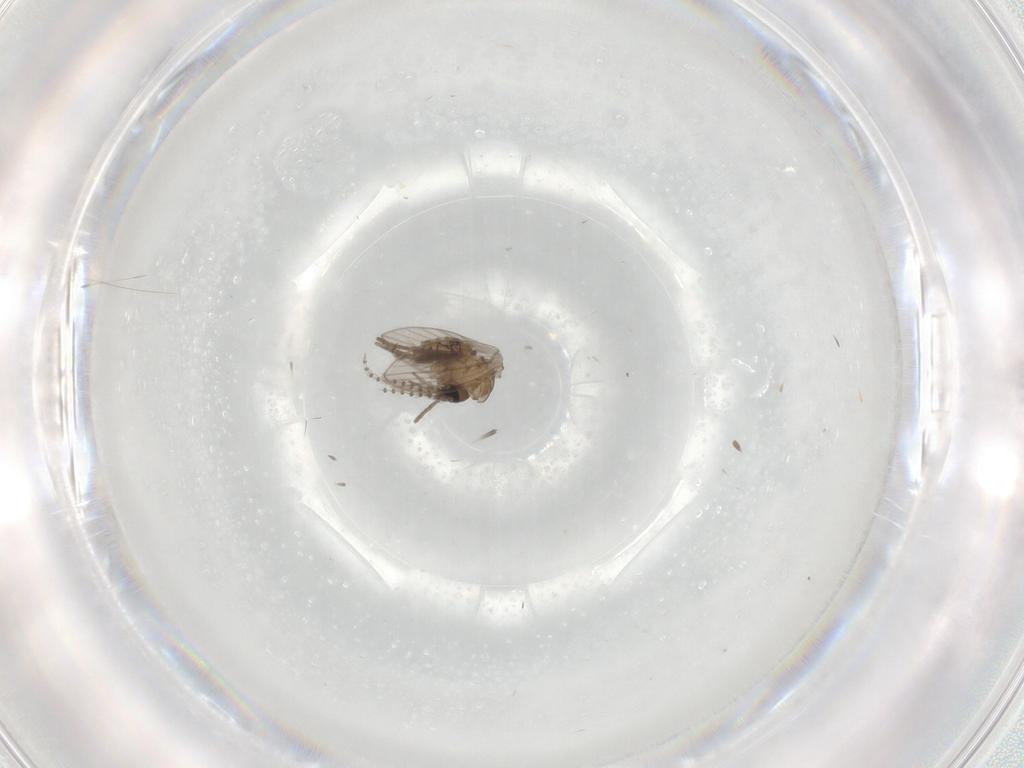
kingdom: Animalia
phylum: Arthropoda
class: Insecta
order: Diptera
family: Psychodidae
